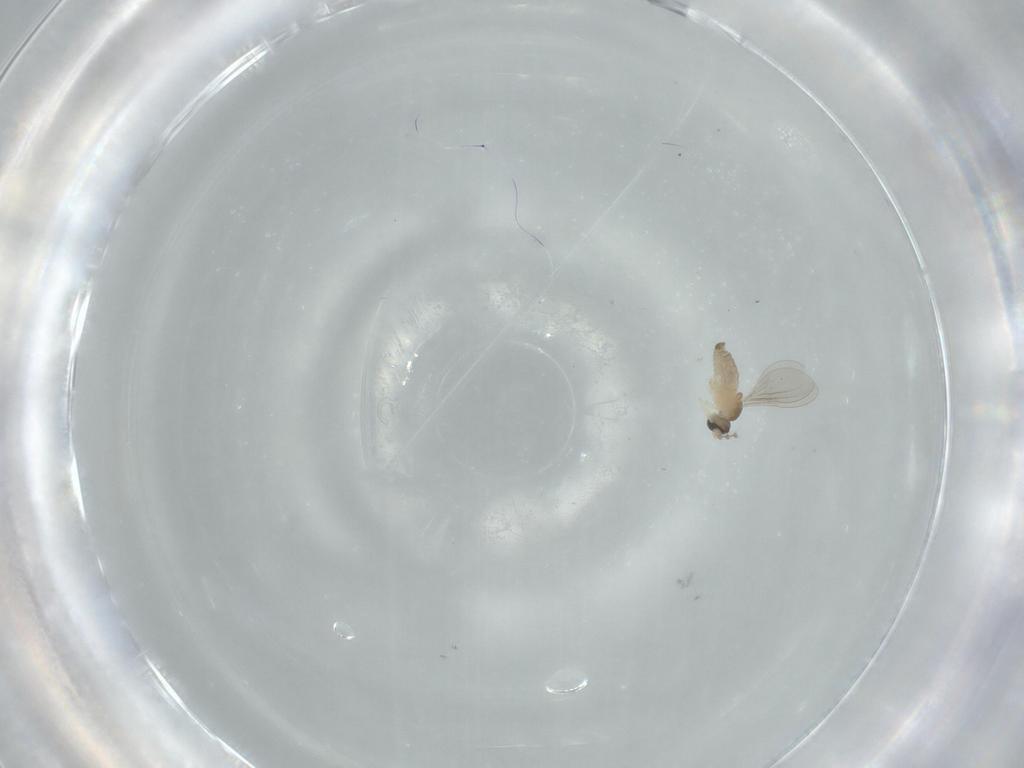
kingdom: Animalia
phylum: Arthropoda
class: Insecta
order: Diptera
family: Cecidomyiidae
